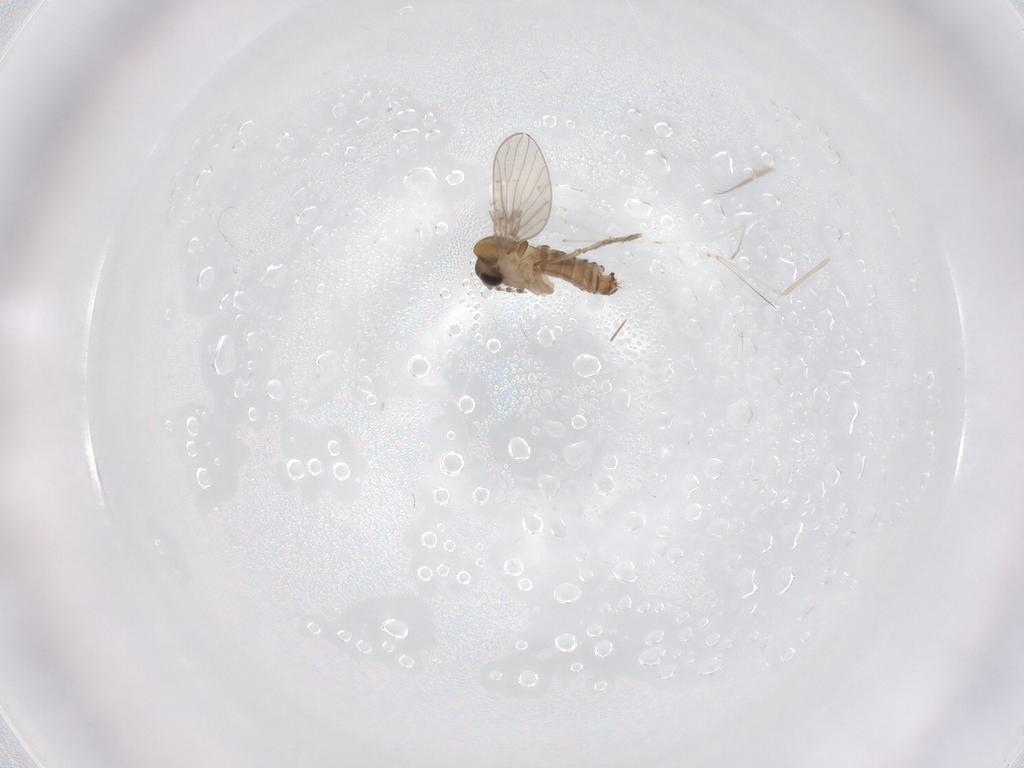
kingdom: Animalia
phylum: Arthropoda
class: Insecta
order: Diptera
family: Cecidomyiidae
